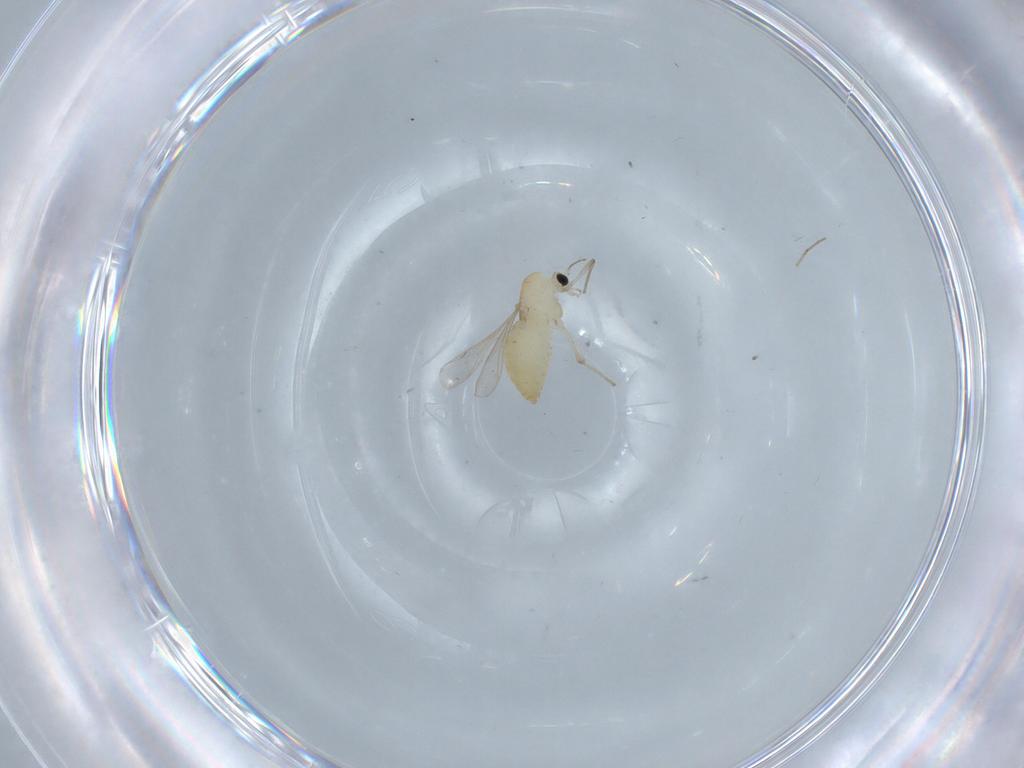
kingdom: Animalia
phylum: Arthropoda
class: Insecta
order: Diptera
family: Chironomidae
